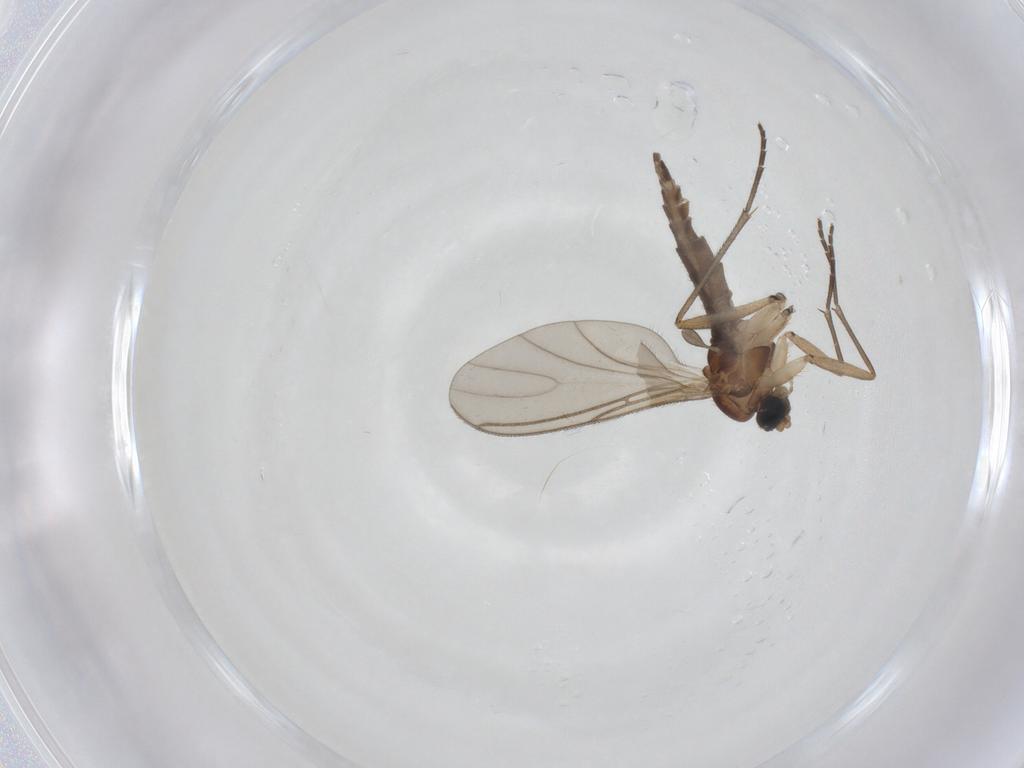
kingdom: Animalia
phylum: Arthropoda
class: Insecta
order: Diptera
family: Sciaridae
